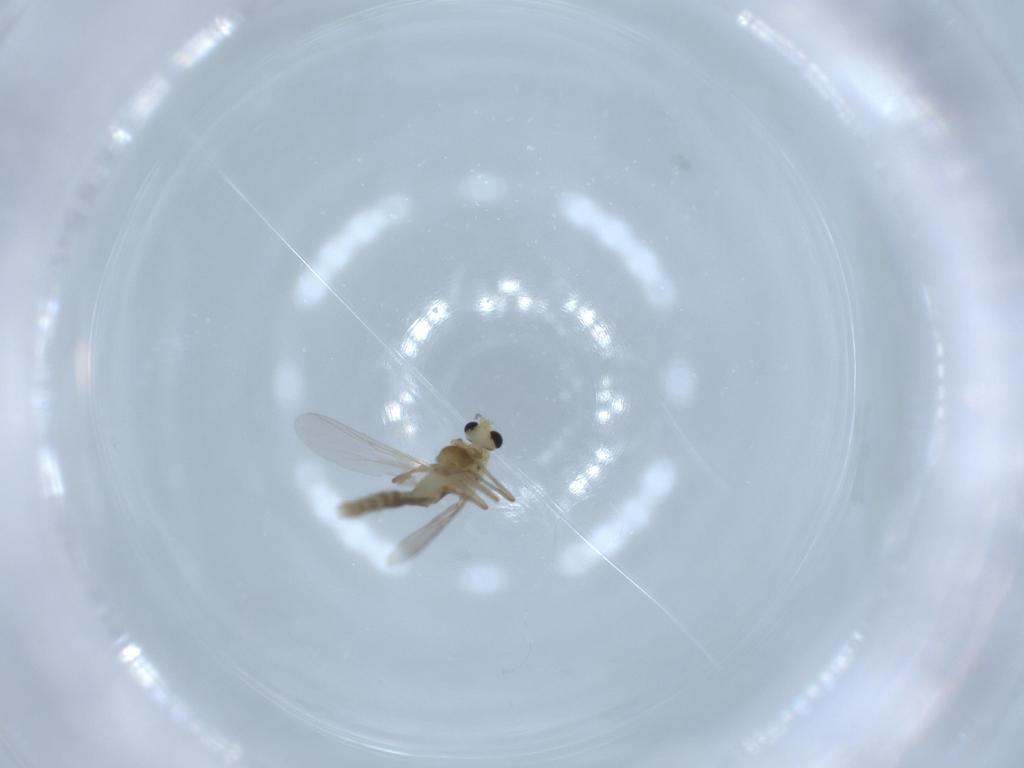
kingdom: Animalia
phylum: Arthropoda
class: Insecta
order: Diptera
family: Chironomidae
